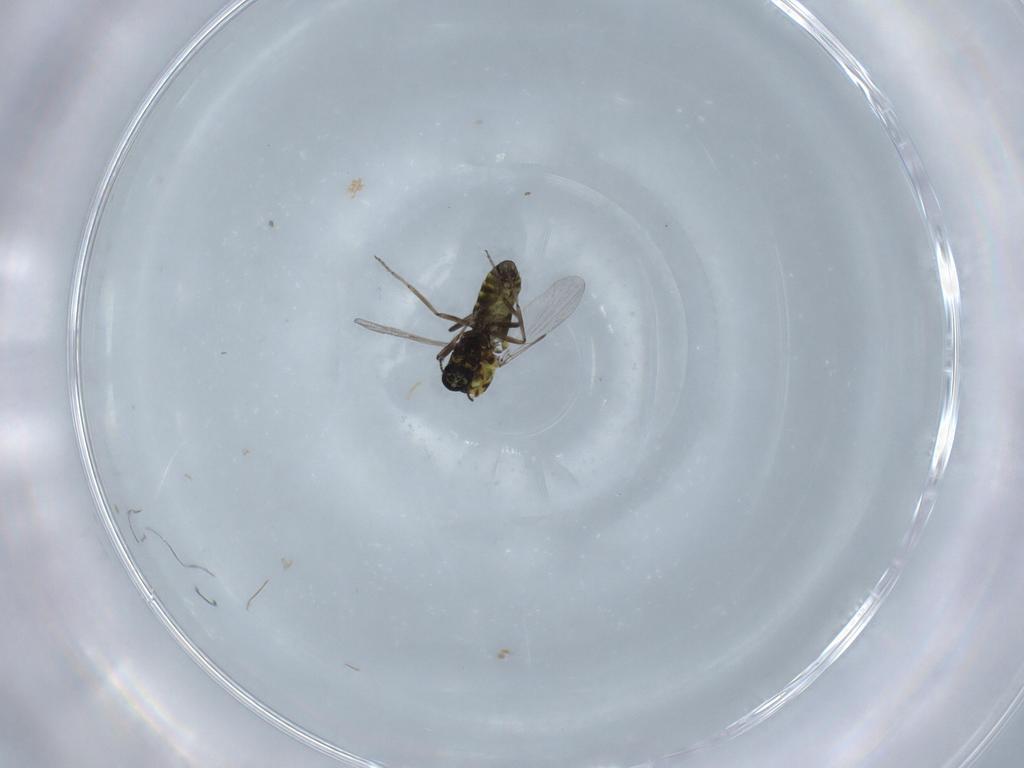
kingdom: Animalia
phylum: Arthropoda
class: Insecta
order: Diptera
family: Ceratopogonidae
